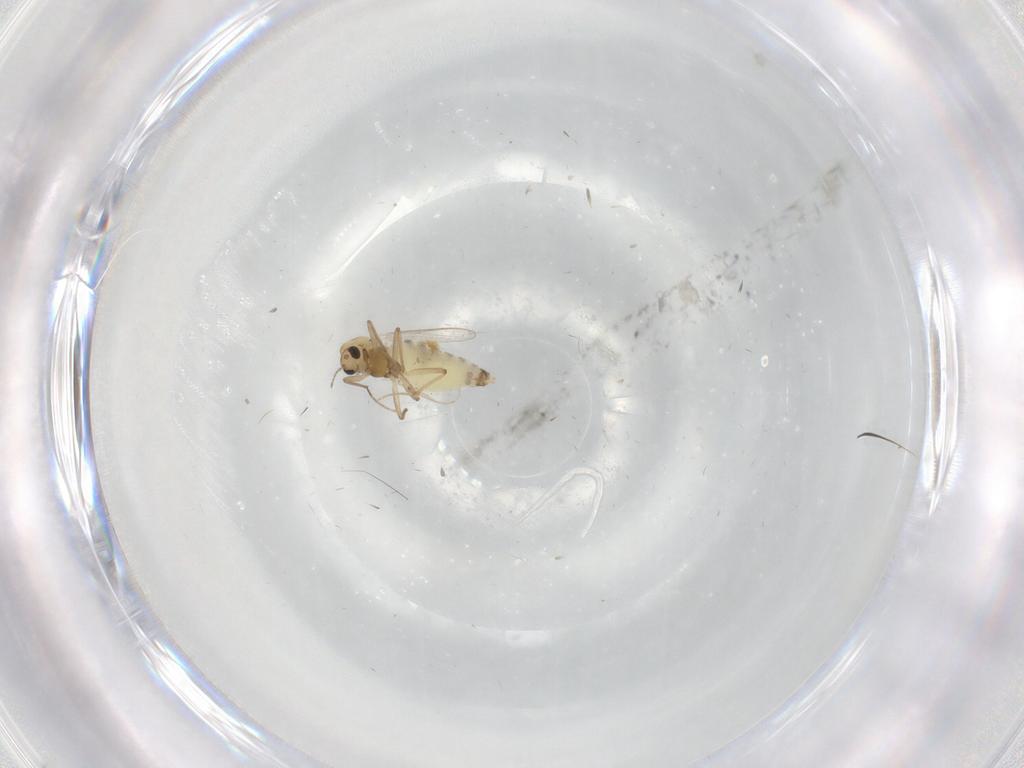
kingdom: Animalia
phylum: Arthropoda
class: Insecta
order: Diptera
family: Chironomidae
